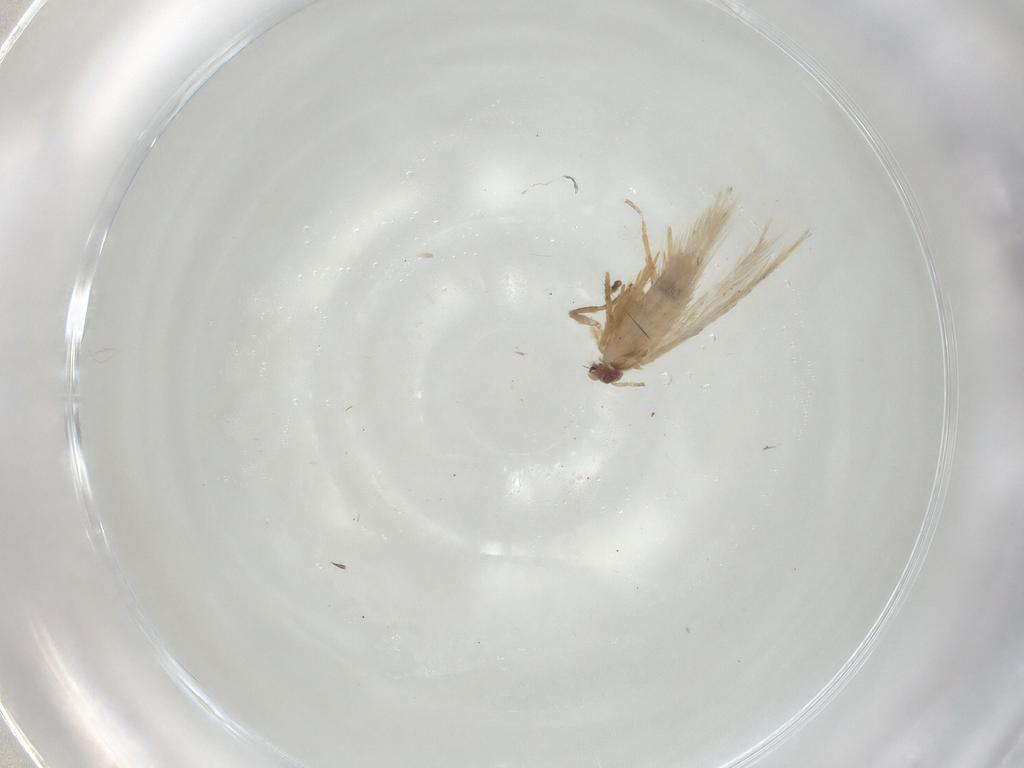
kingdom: Animalia
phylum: Arthropoda
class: Insecta
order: Lepidoptera
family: Nepticulidae
